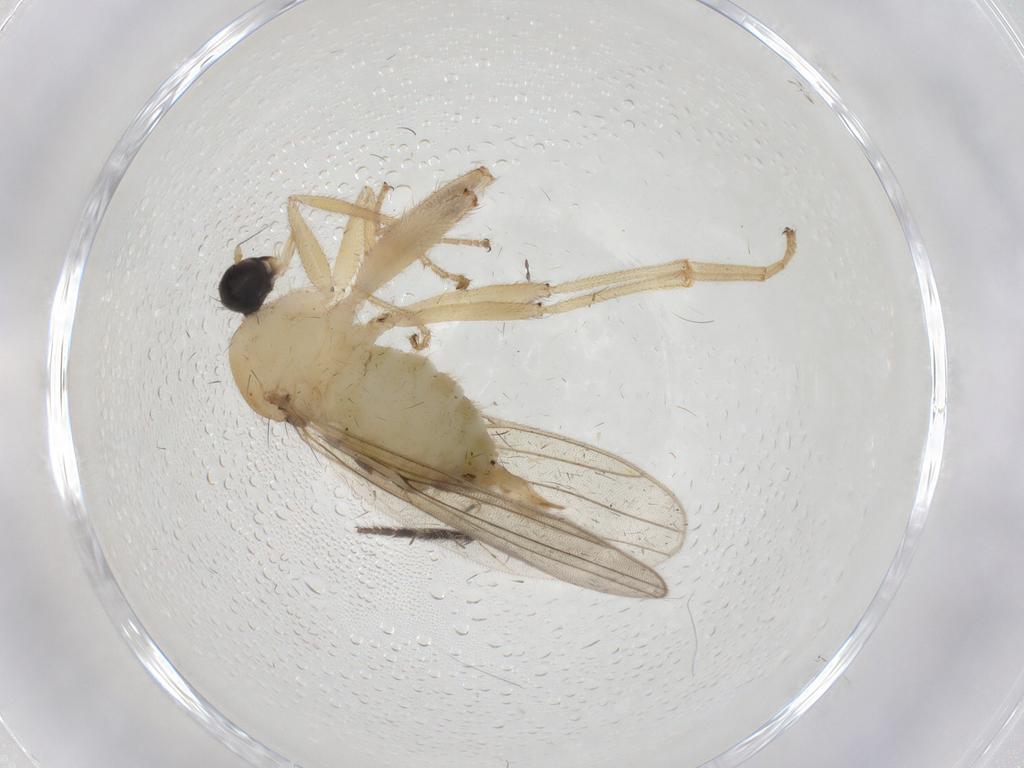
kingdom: Animalia
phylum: Arthropoda
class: Insecta
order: Diptera
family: Hybotidae
